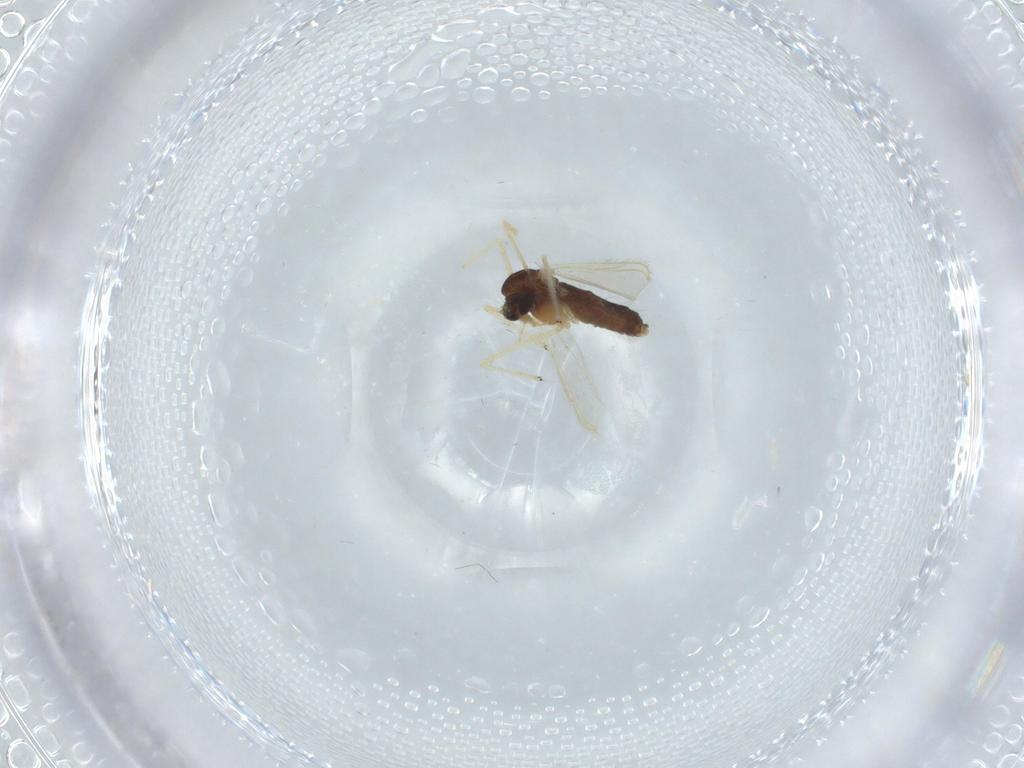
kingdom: Animalia
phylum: Arthropoda
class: Insecta
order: Diptera
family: Chironomidae
